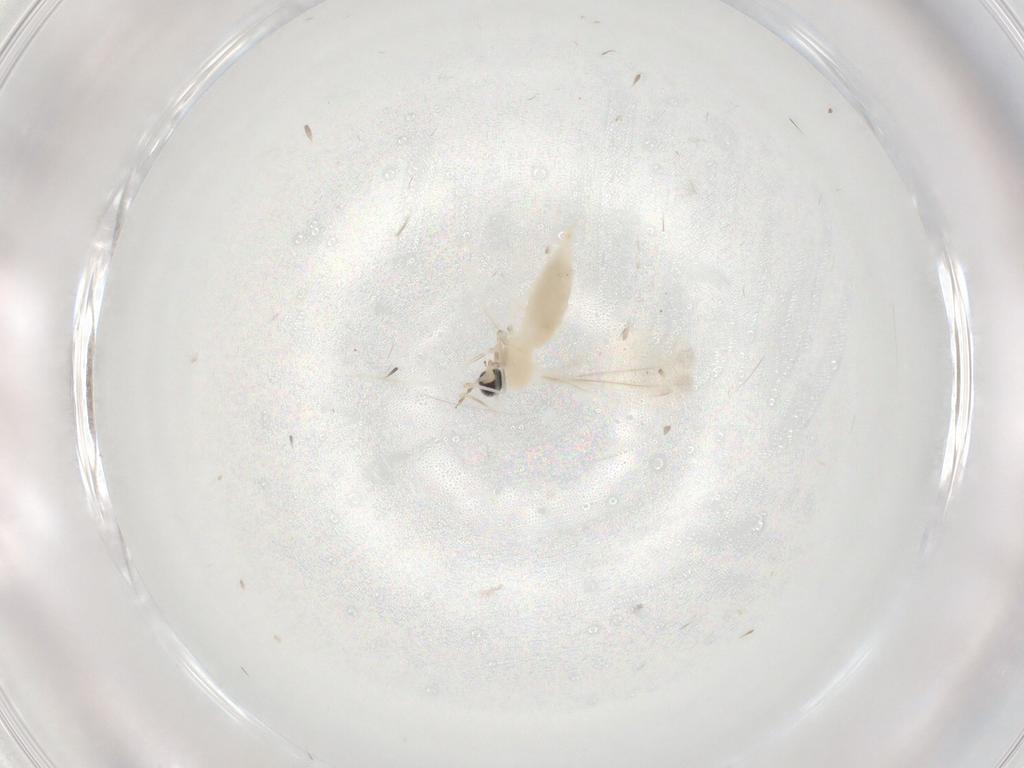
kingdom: Animalia
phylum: Arthropoda
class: Insecta
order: Diptera
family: Cecidomyiidae
